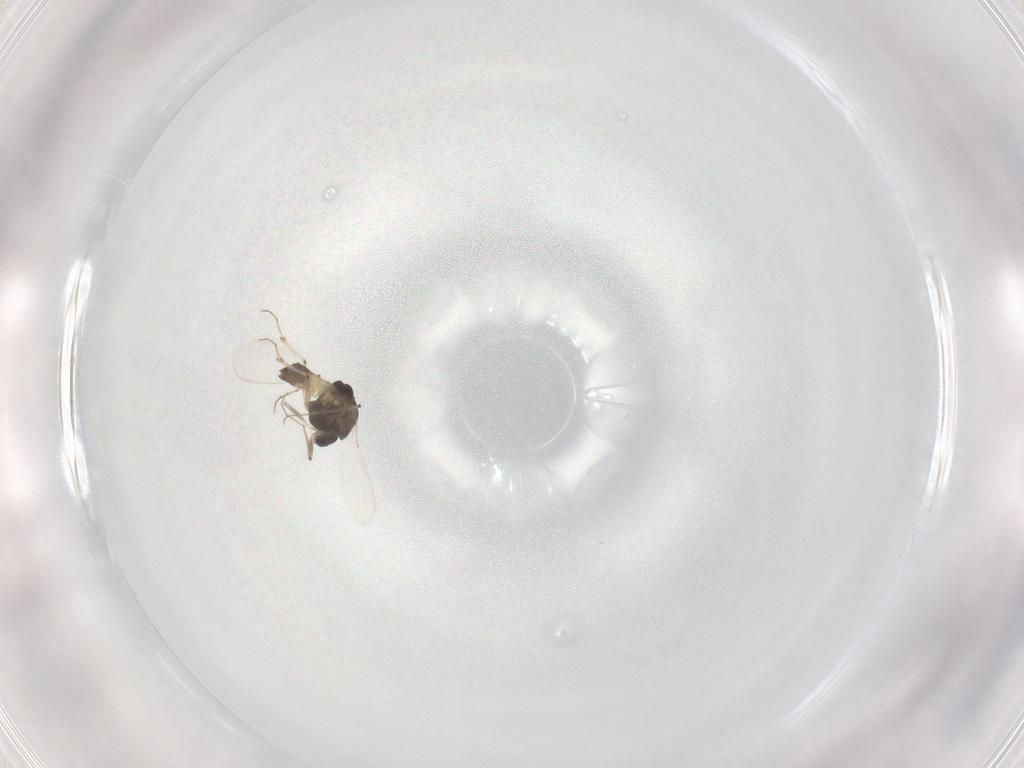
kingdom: Animalia
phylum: Arthropoda
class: Insecta
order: Diptera
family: Chironomidae
